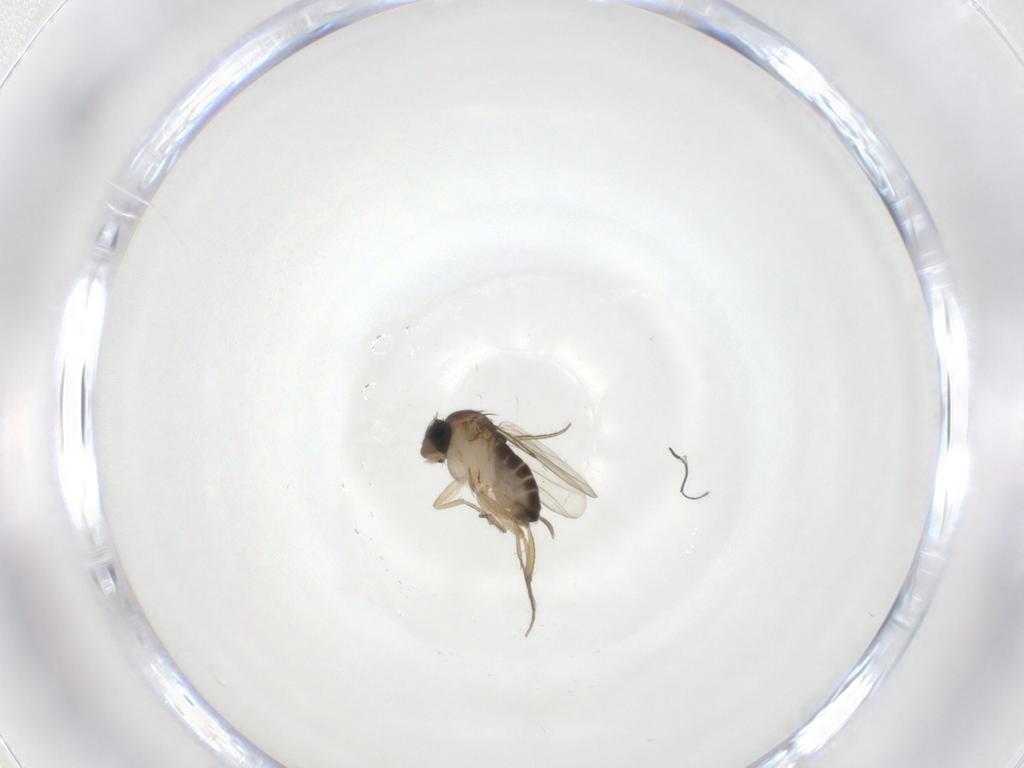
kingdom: Animalia
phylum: Arthropoda
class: Insecta
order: Diptera
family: Phoridae
